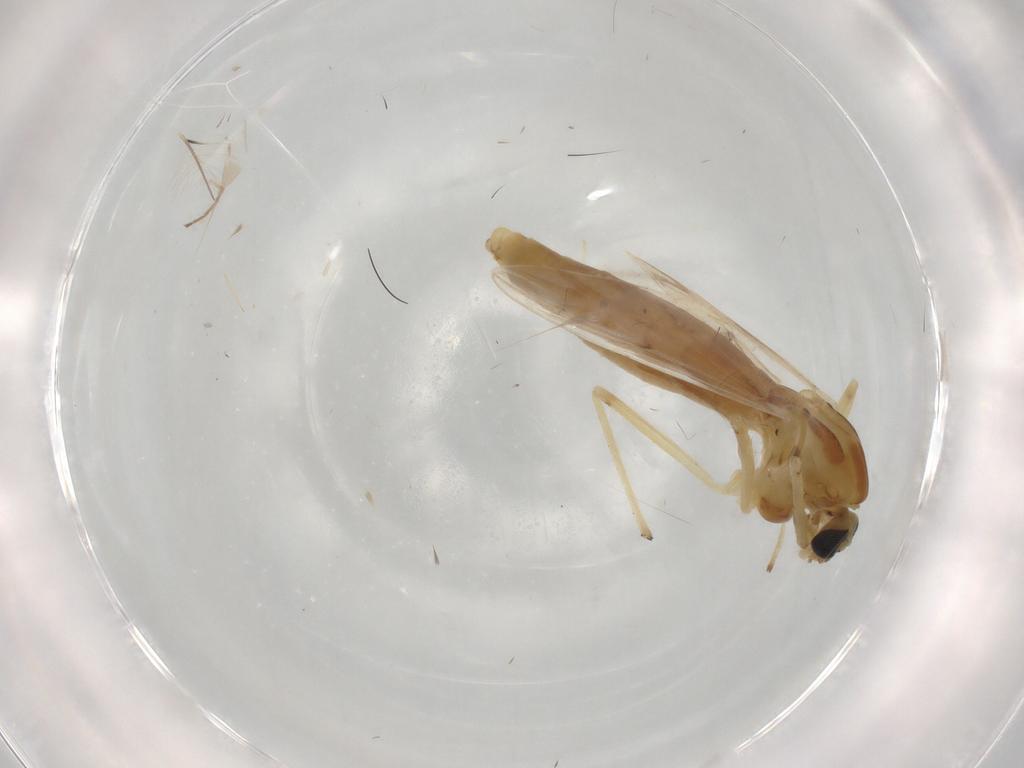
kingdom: Animalia
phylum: Arthropoda
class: Insecta
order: Diptera
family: Chironomidae
